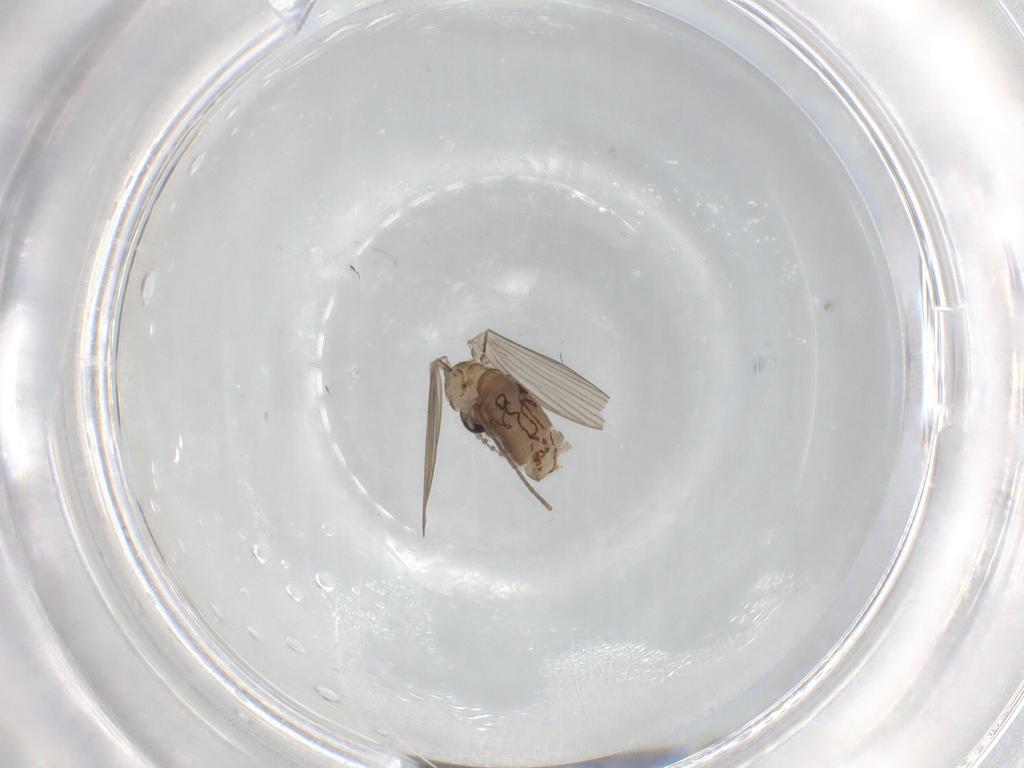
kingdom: Animalia
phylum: Arthropoda
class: Insecta
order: Diptera
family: Psychodidae
